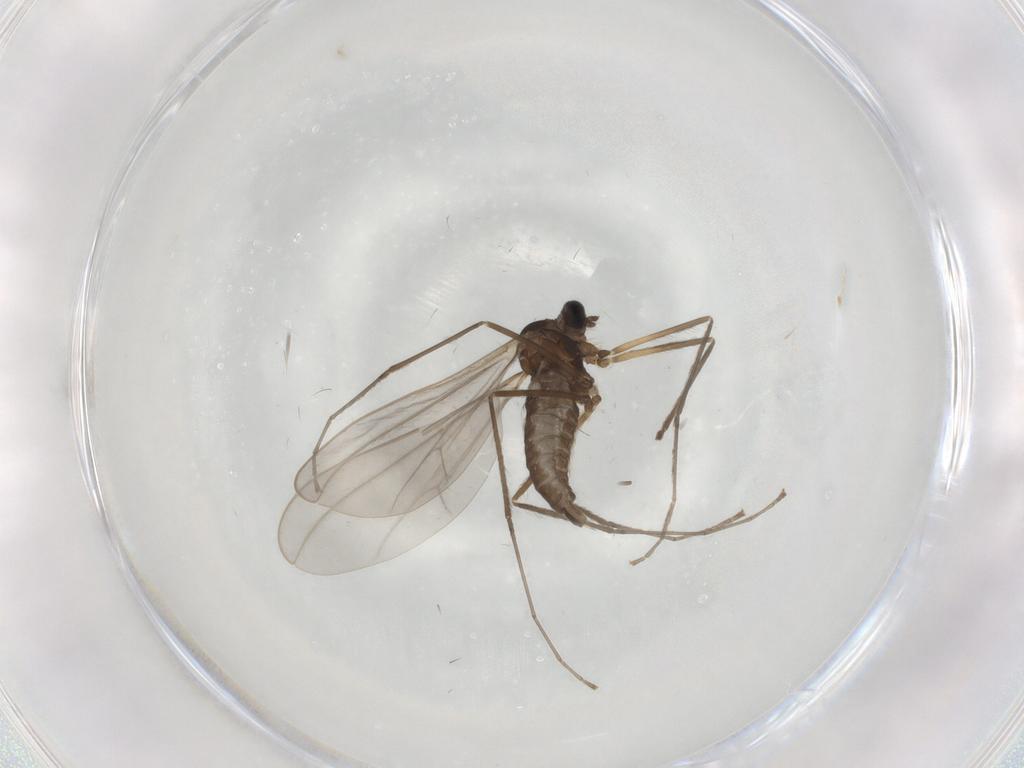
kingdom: Animalia
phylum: Arthropoda
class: Insecta
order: Diptera
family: Cecidomyiidae
